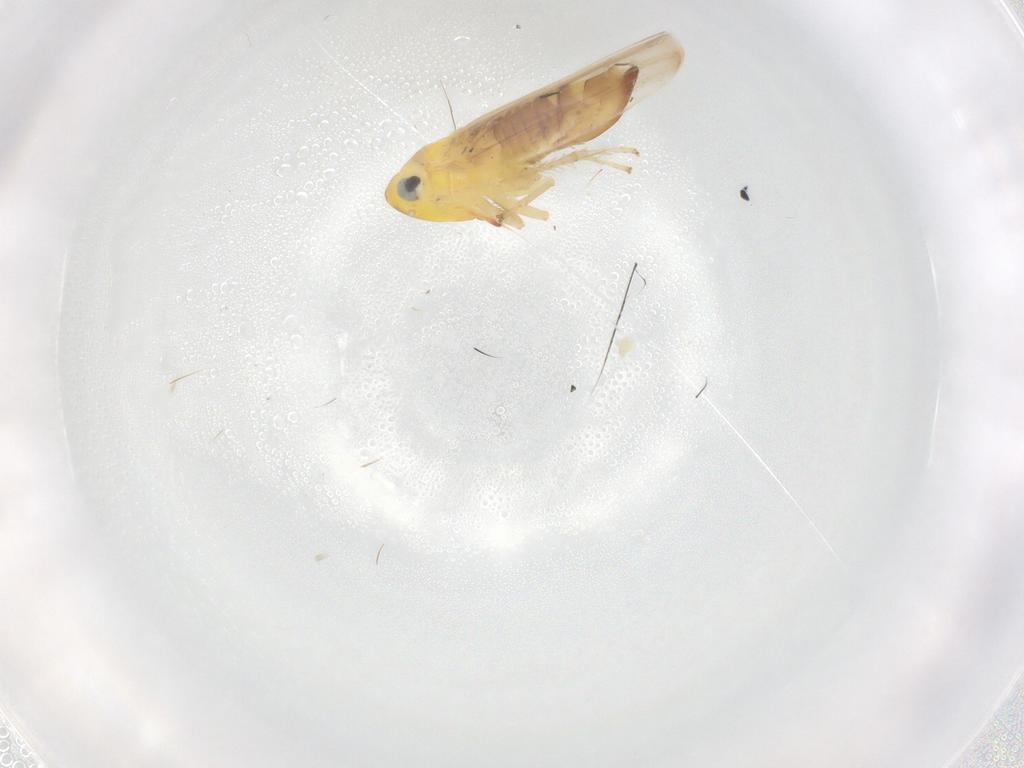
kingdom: Animalia
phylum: Arthropoda
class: Insecta
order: Hemiptera
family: Cicadellidae
